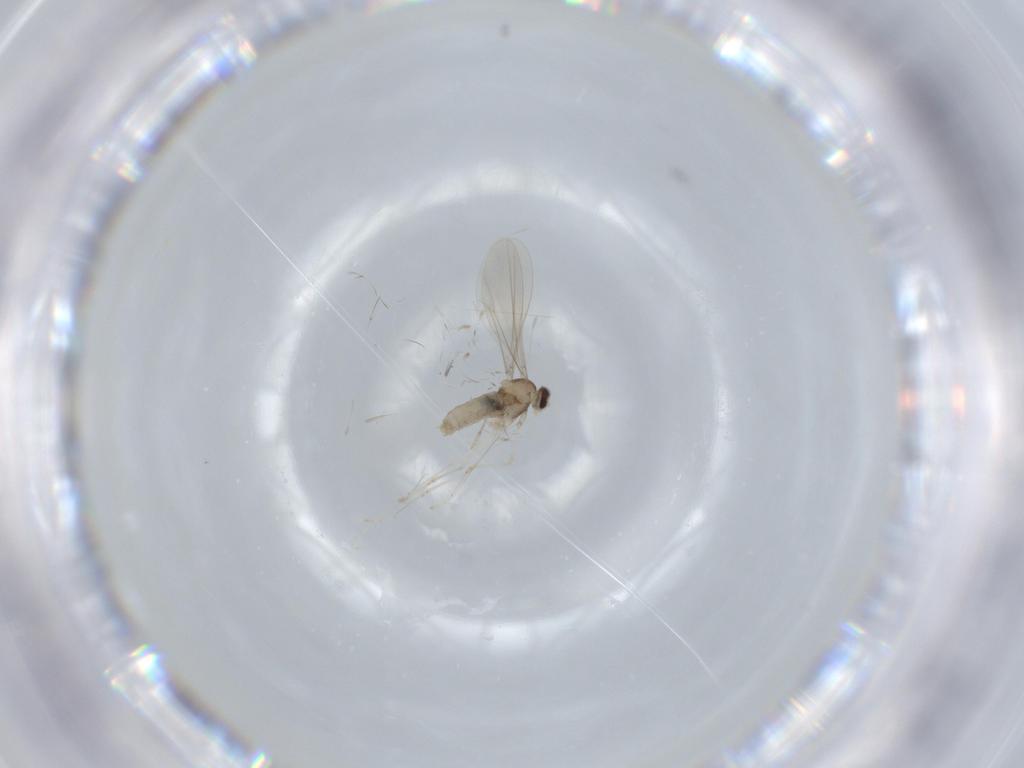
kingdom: Animalia
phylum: Arthropoda
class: Insecta
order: Diptera
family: Cecidomyiidae
